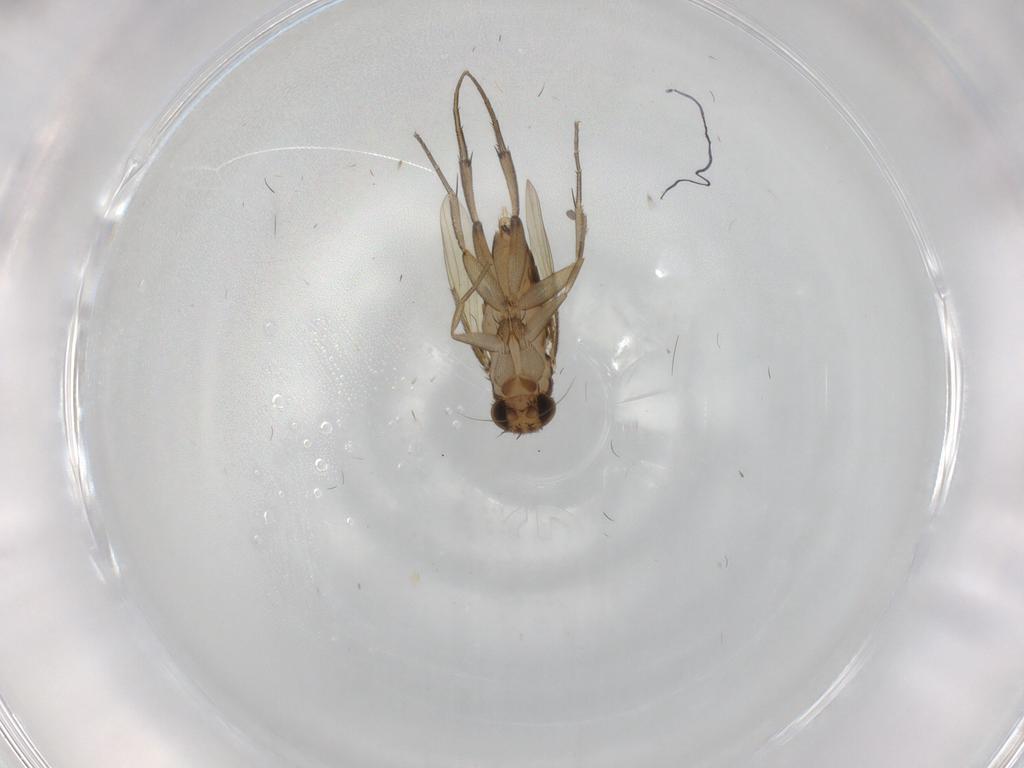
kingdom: Animalia
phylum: Arthropoda
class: Insecta
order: Diptera
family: Phoridae
